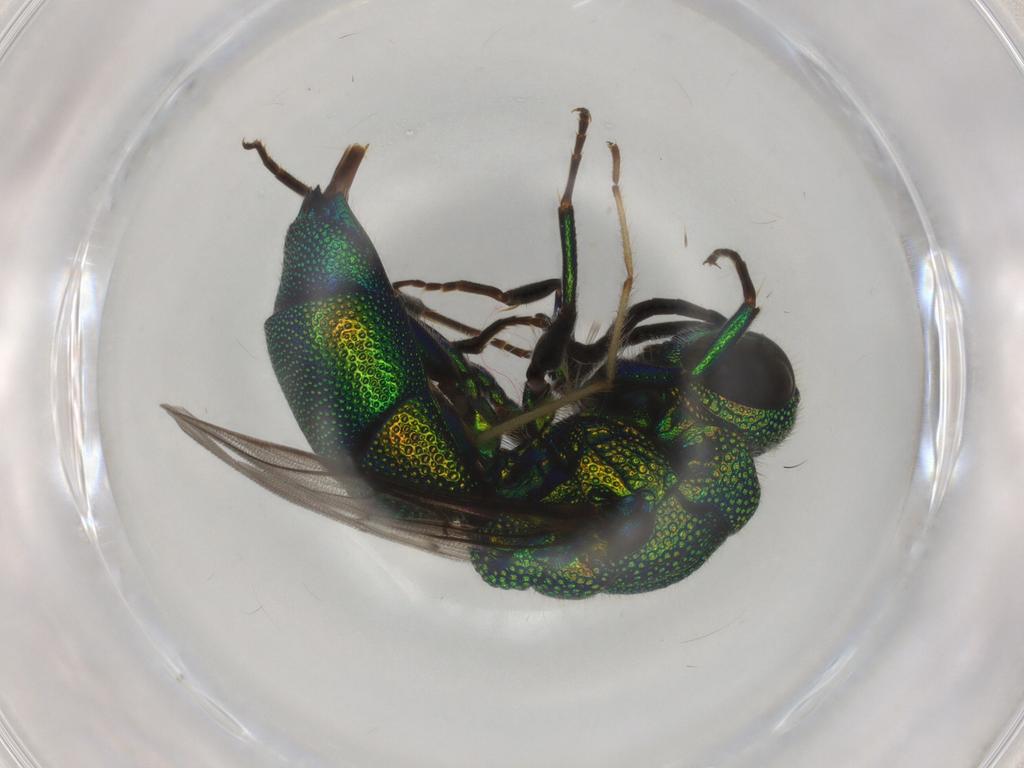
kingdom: Animalia
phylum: Arthropoda
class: Insecta
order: Hymenoptera
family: Chrysididae
